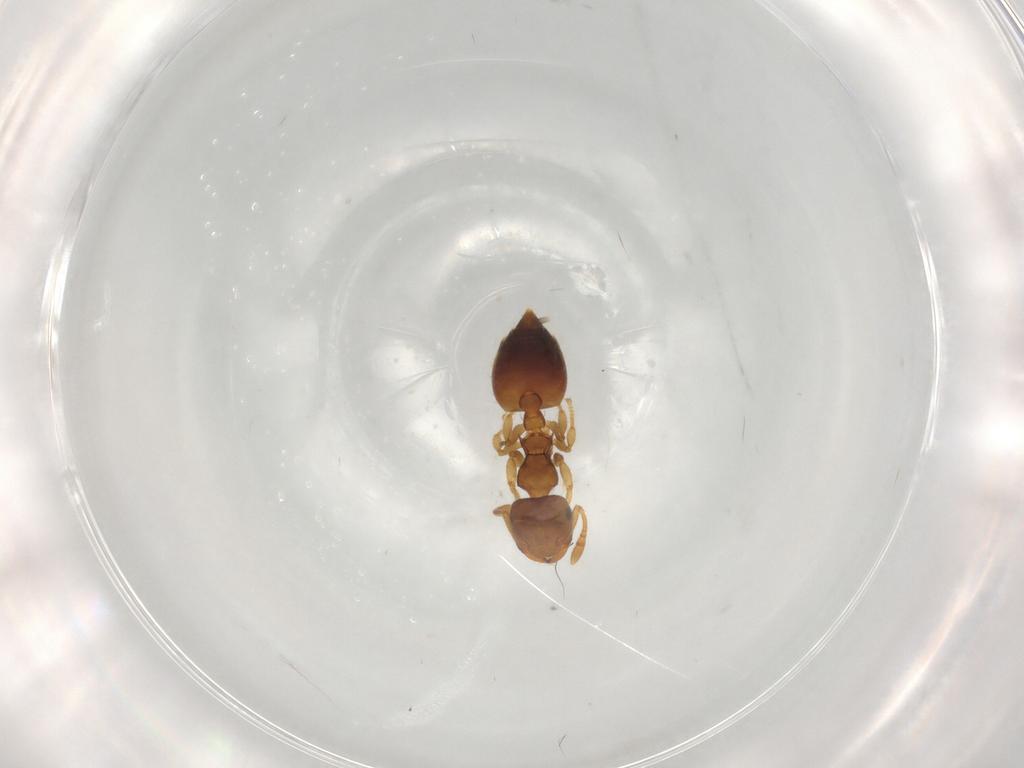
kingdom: Animalia
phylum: Arthropoda
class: Insecta
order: Hymenoptera
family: Formicidae
